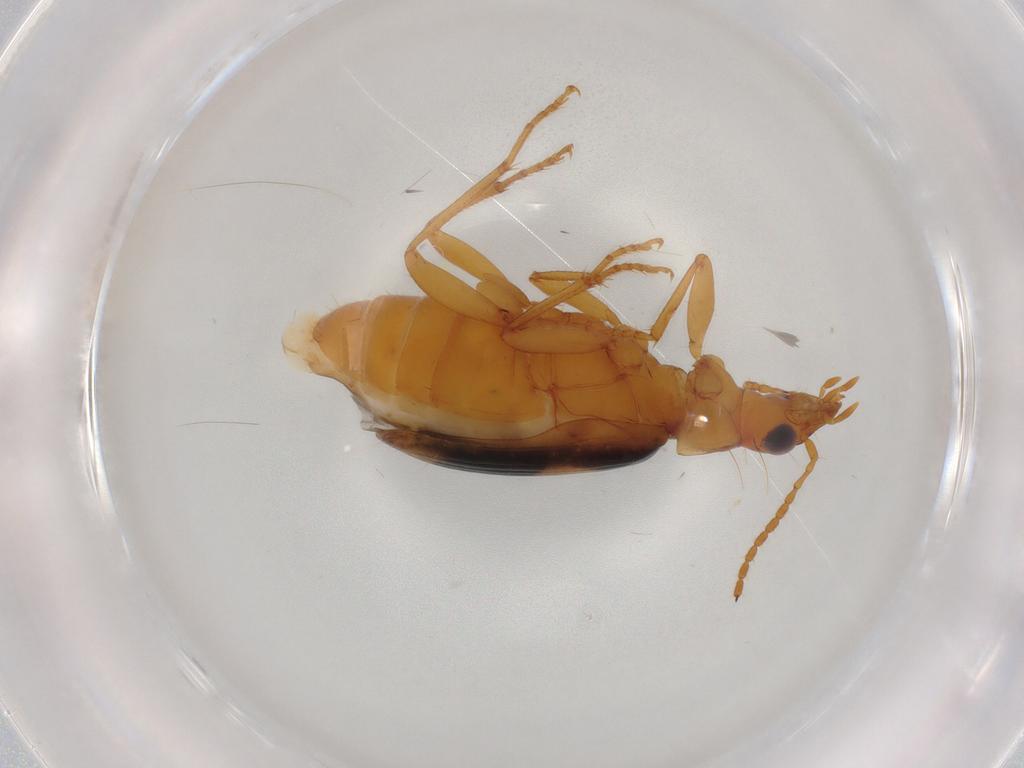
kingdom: Animalia
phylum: Arthropoda
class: Insecta
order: Coleoptera
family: Carabidae
